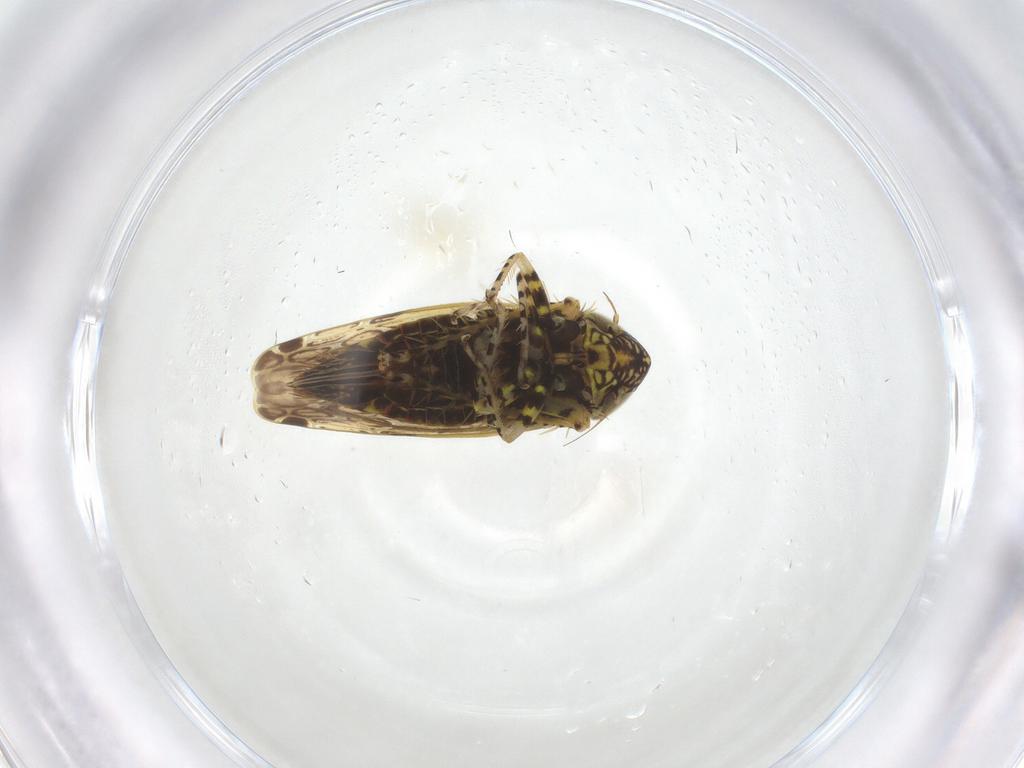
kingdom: Animalia
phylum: Arthropoda
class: Insecta
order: Hemiptera
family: Cicadellidae
